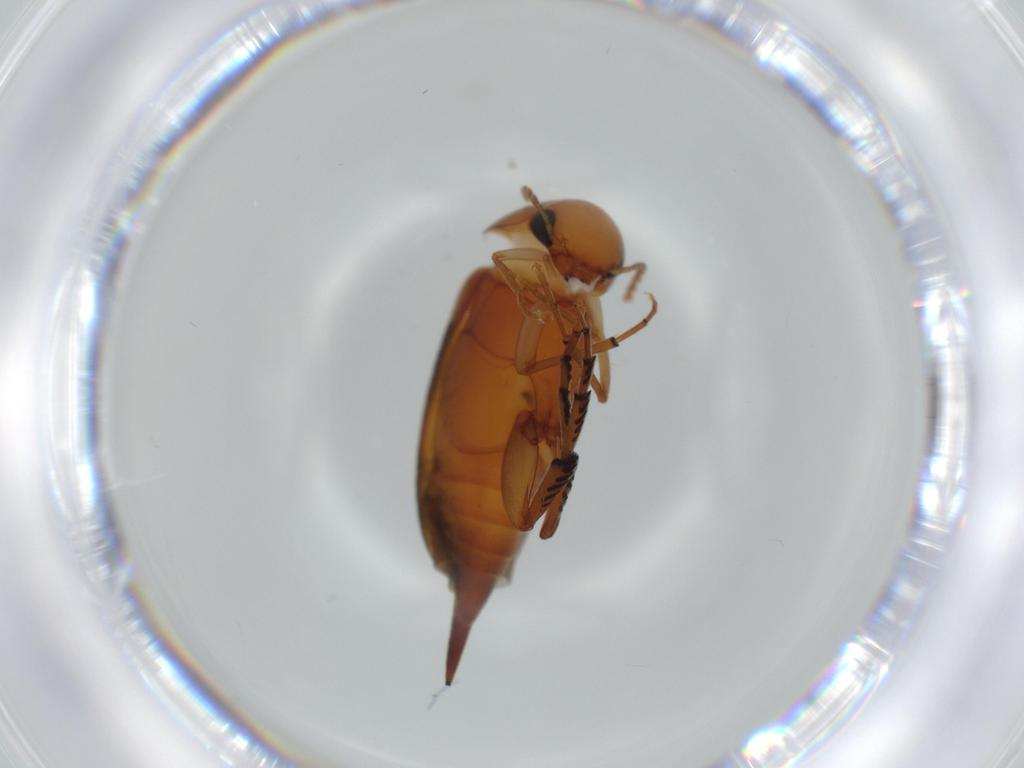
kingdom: Animalia
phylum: Arthropoda
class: Insecta
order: Coleoptera
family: Mordellidae
